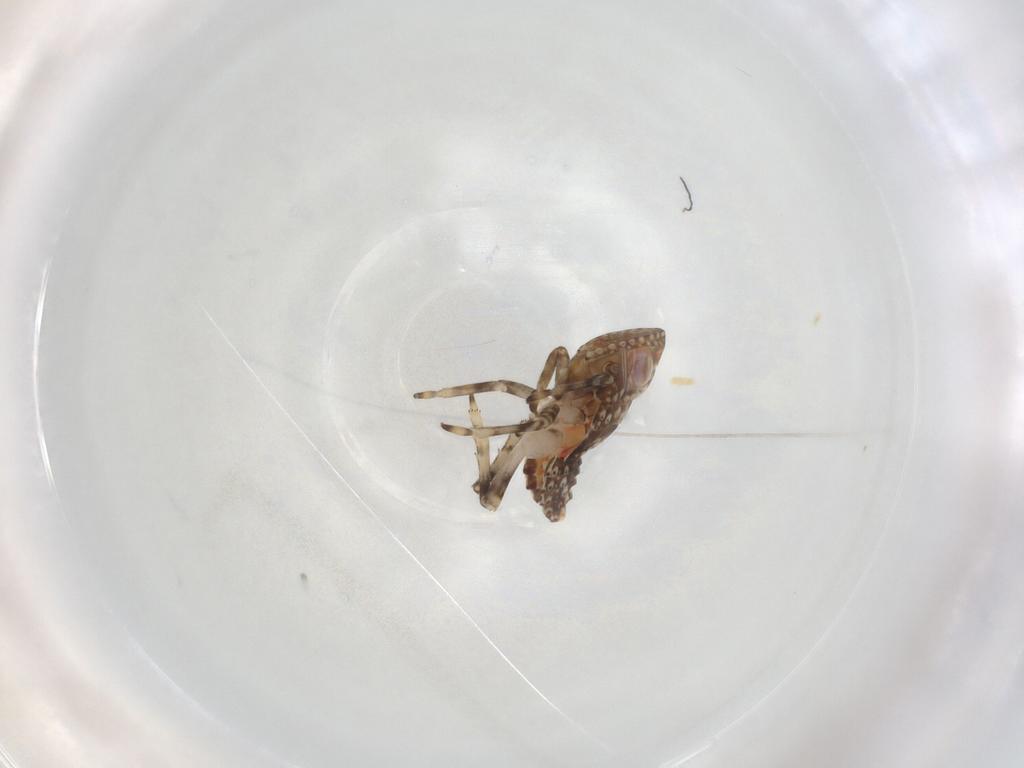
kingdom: Animalia
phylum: Arthropoda
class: Insecta
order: Hemiptera
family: Tropiduchidae
